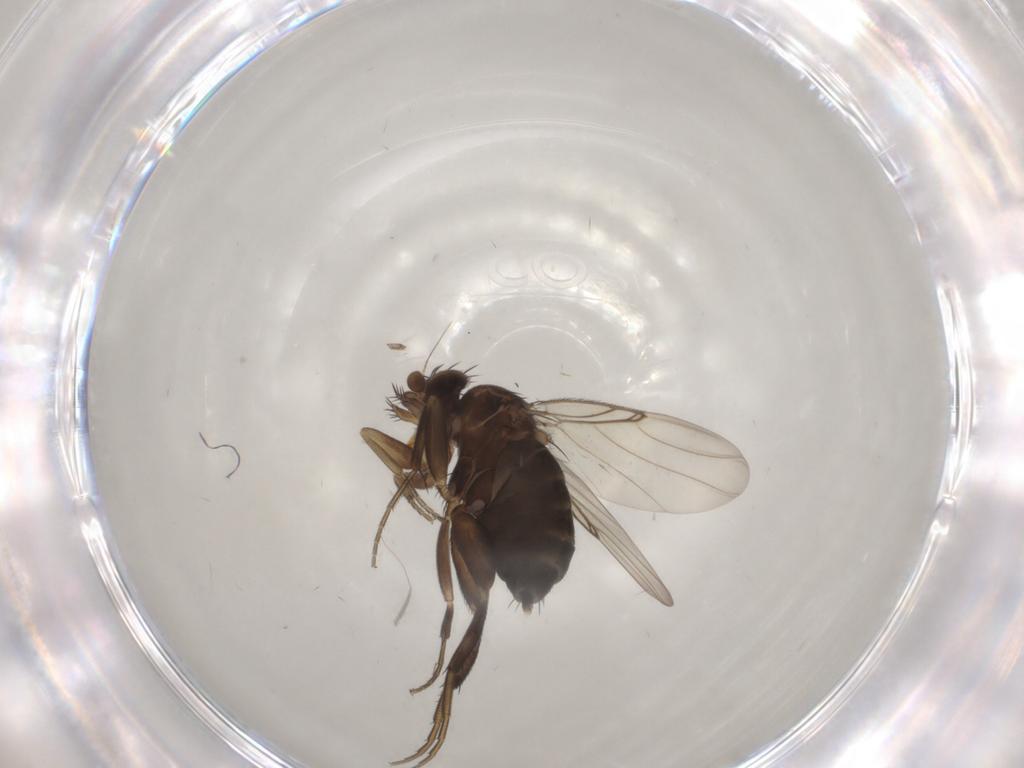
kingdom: Animalia
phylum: Arthropoda
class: Insecta
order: Diptera
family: Phoridae
